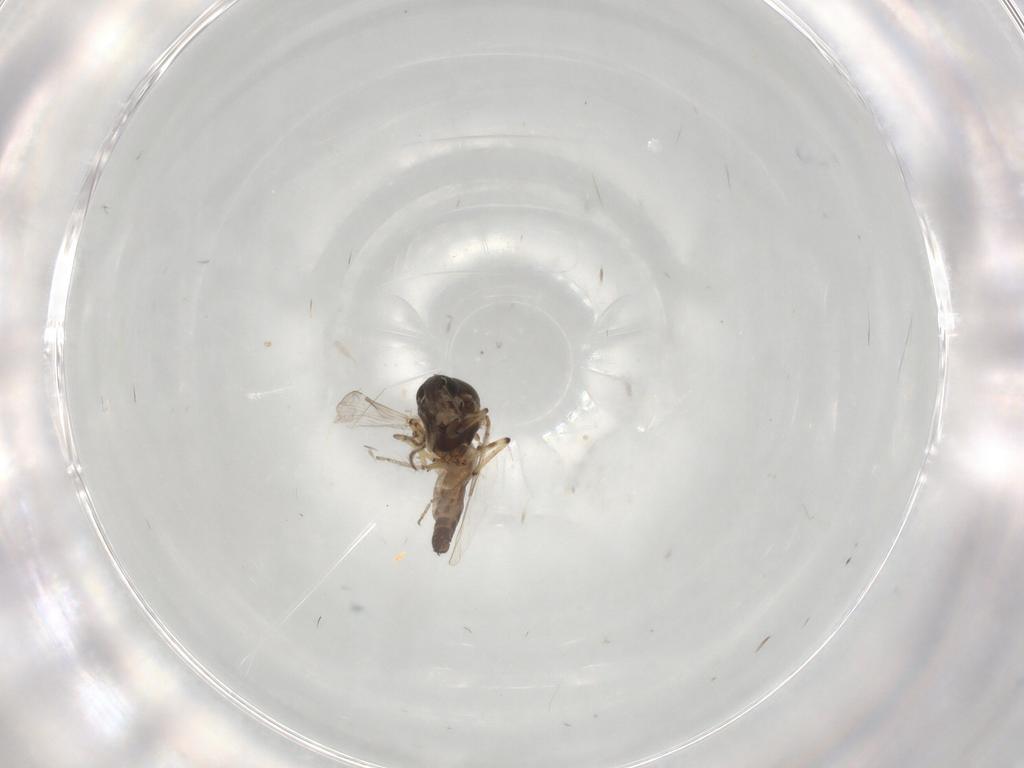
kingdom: Animalia
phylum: Arthropoda
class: Insecta
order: Diptera
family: Ceratopogonidae
